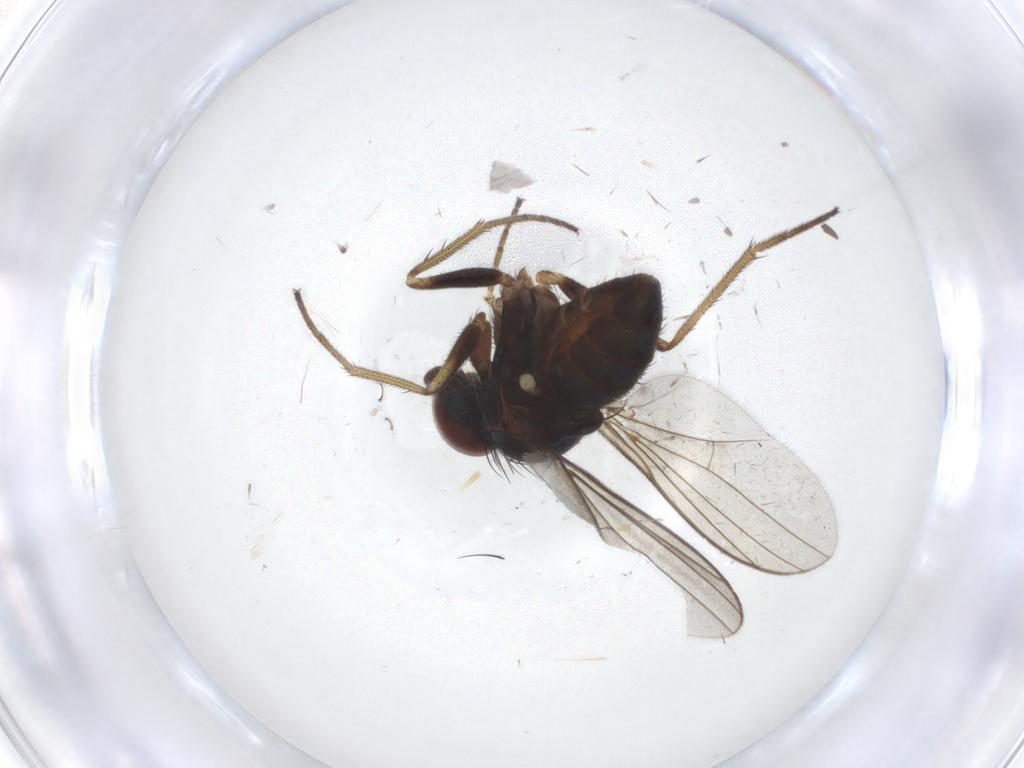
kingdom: Animalia
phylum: Arthropoda
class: Insecta
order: Diptera
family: Dolichopodidae
